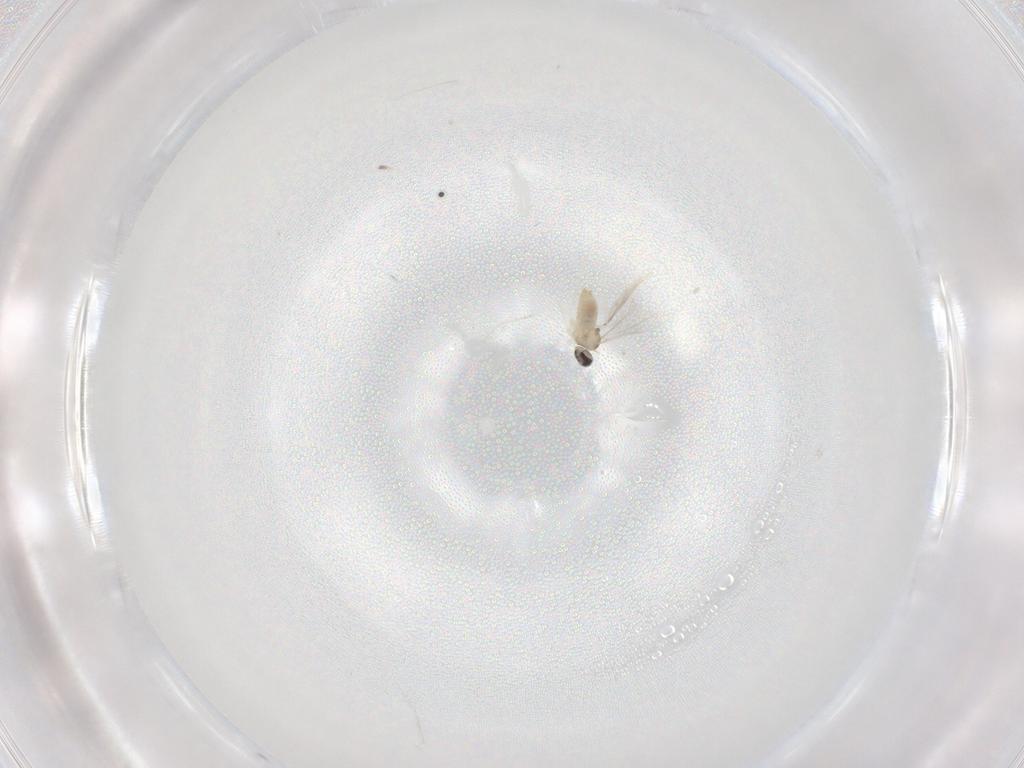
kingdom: Animalia
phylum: Arthropoda
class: Insecta
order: Diptera
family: Cecidomyiidae
